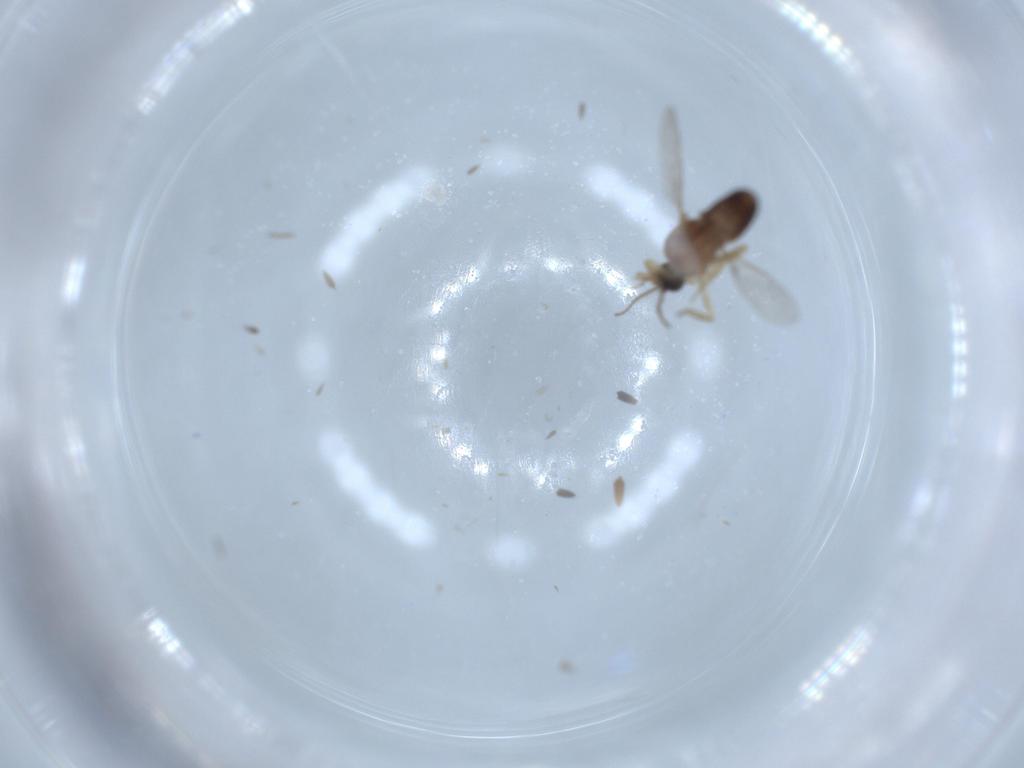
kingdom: Animalia
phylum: Arthropoda
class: Insecta
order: Diptera
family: Ceratopogonidae
